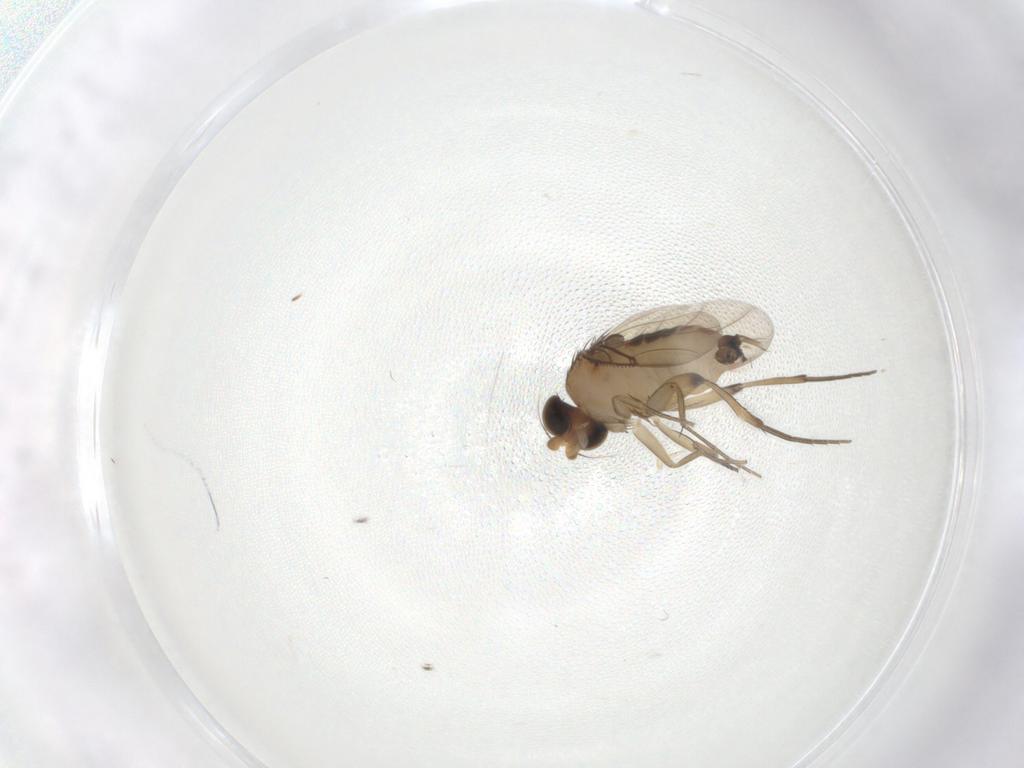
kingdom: Animalia
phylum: Arthropoda
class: Insecta
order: Diptera
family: Phoridae
